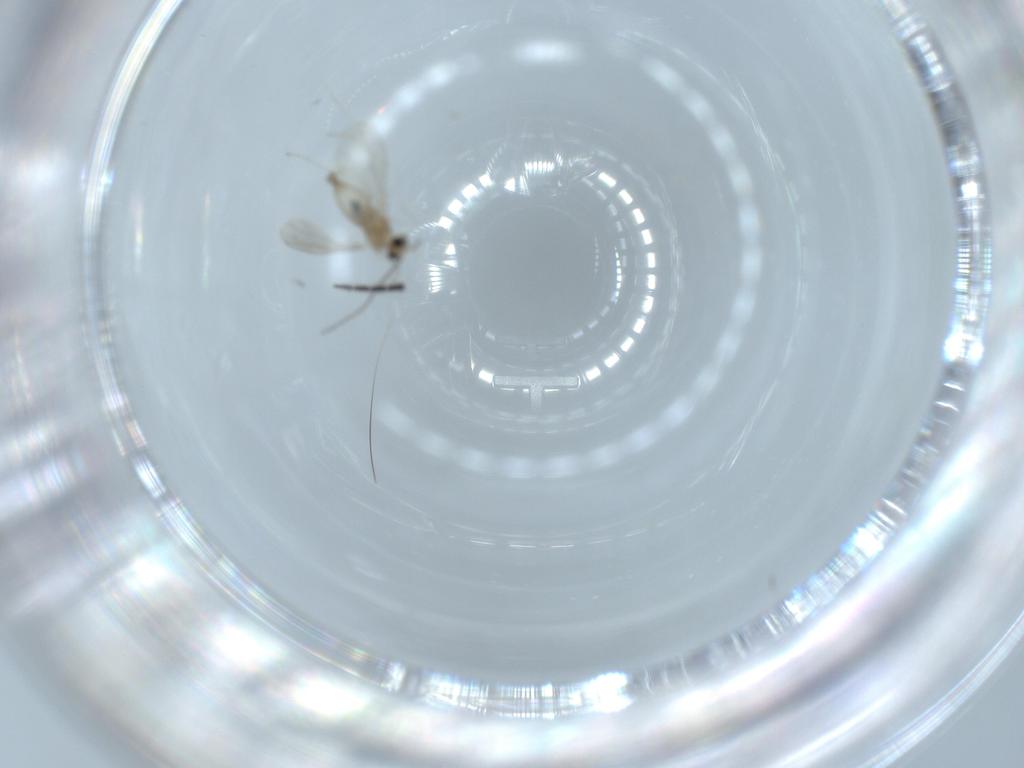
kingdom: Animalia
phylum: Arthropoda
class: Insecta
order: Diptera
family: Cecidomyiidae
